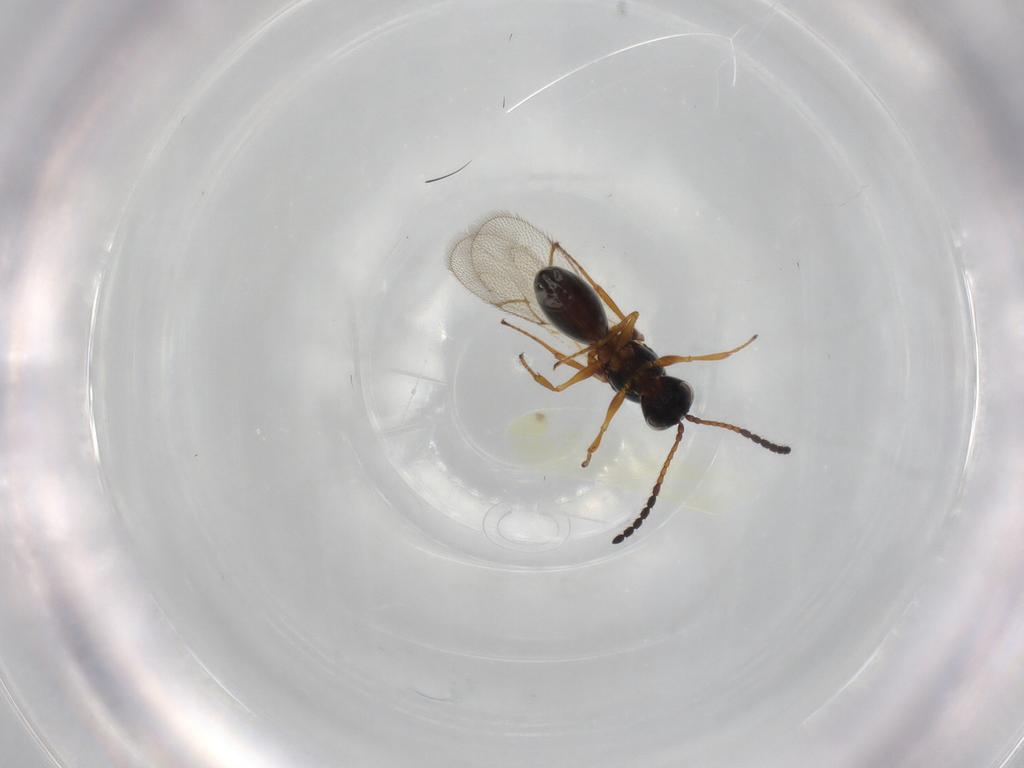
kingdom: Animalia
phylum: Arthropoda
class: Insecta
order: Hymenoptera
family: Figitidae
